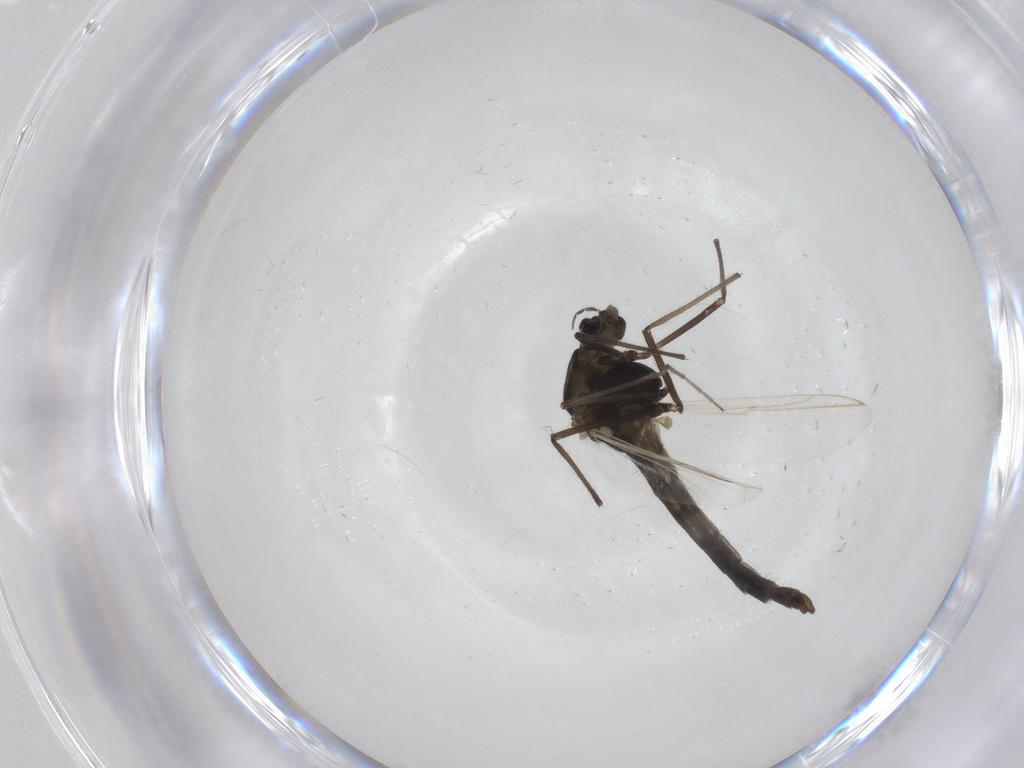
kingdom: Animalia
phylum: Arthropoda
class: Insecta
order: Diptera
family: Chironomidae
